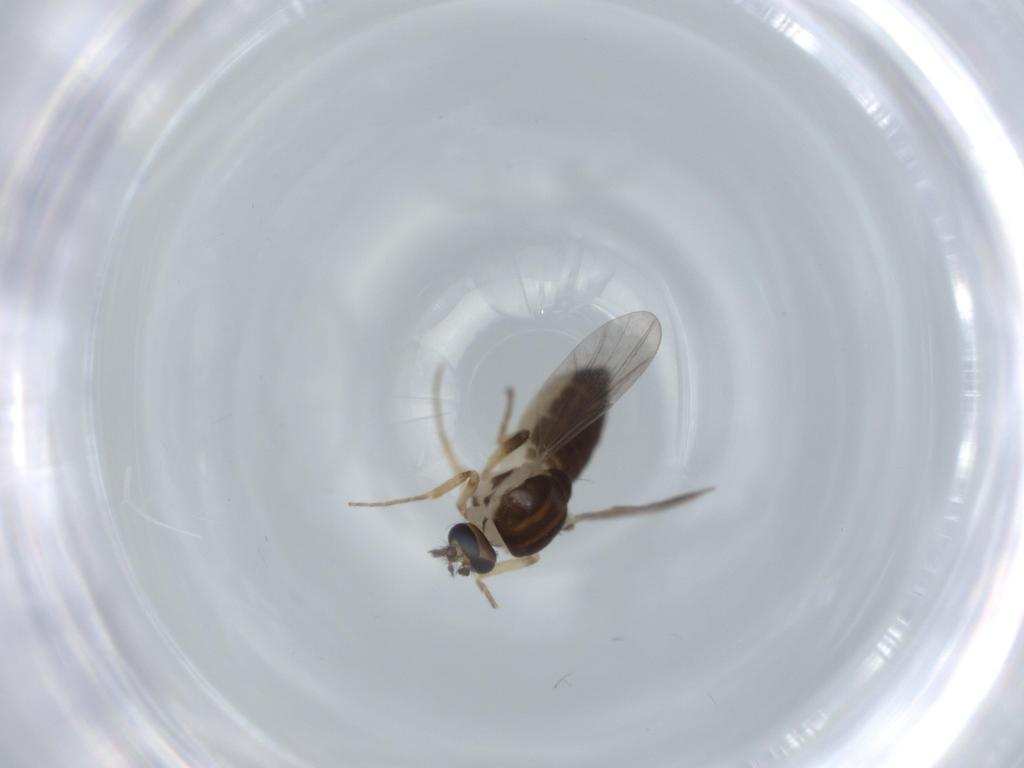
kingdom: Animalia
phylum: Arthropoda
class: Insecta
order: Diptera
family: Ceratopogonidae
